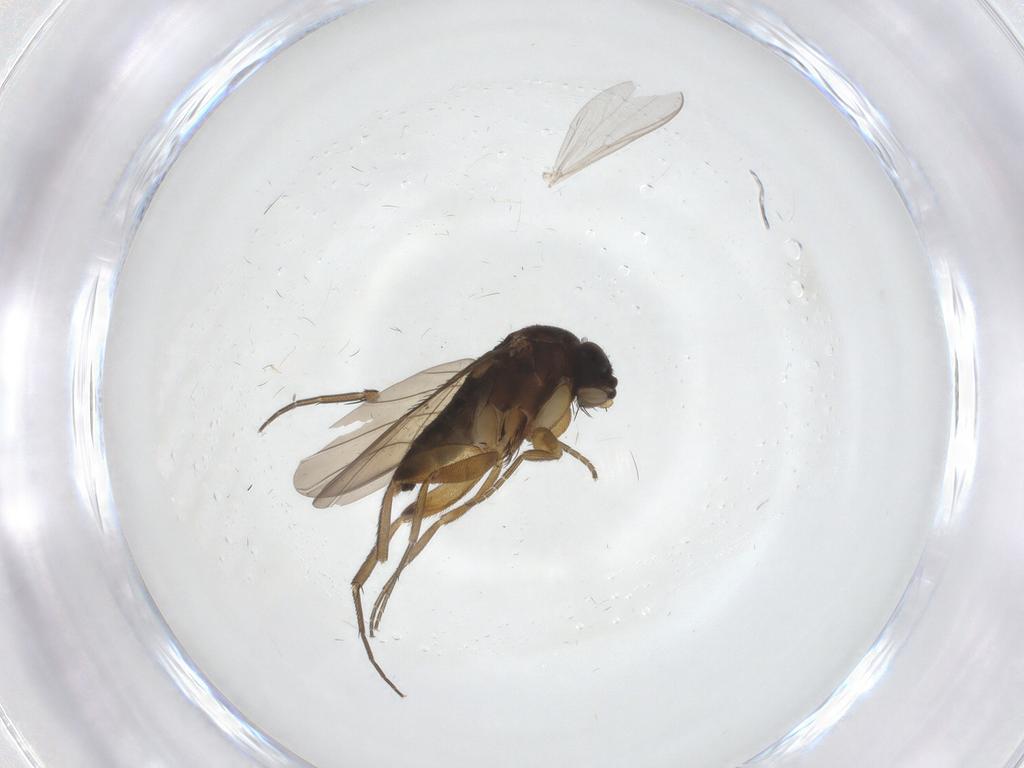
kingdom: Animalia
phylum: Arthropoda
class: Insecta
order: Diptera
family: Phoridae
